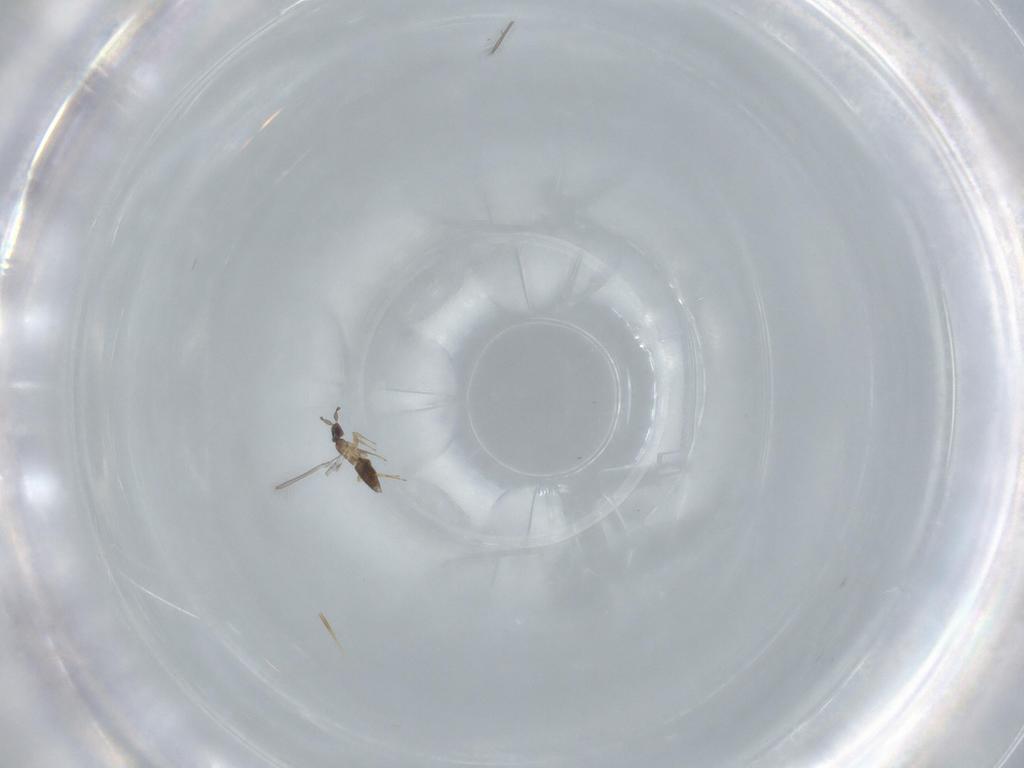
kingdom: Animalia
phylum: Arthropoda
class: Insecta
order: Hymenoptera
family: Mymaridae
